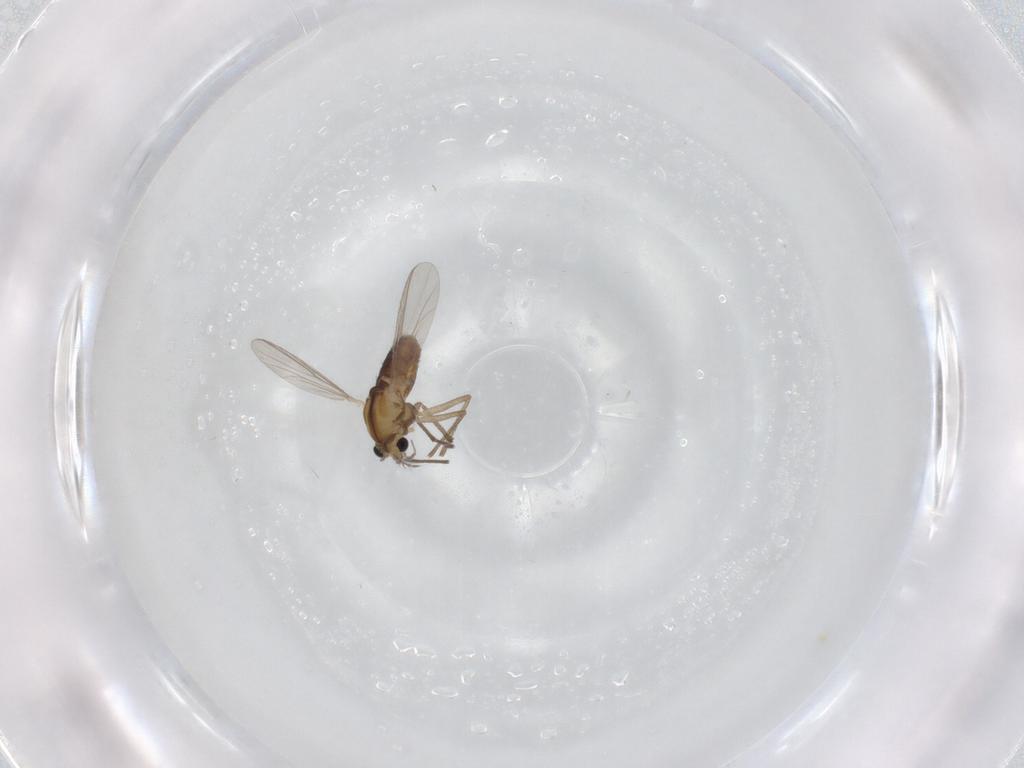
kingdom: Animalia
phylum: Arthropoda
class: Insecta
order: Diptera
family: Chironomidae
